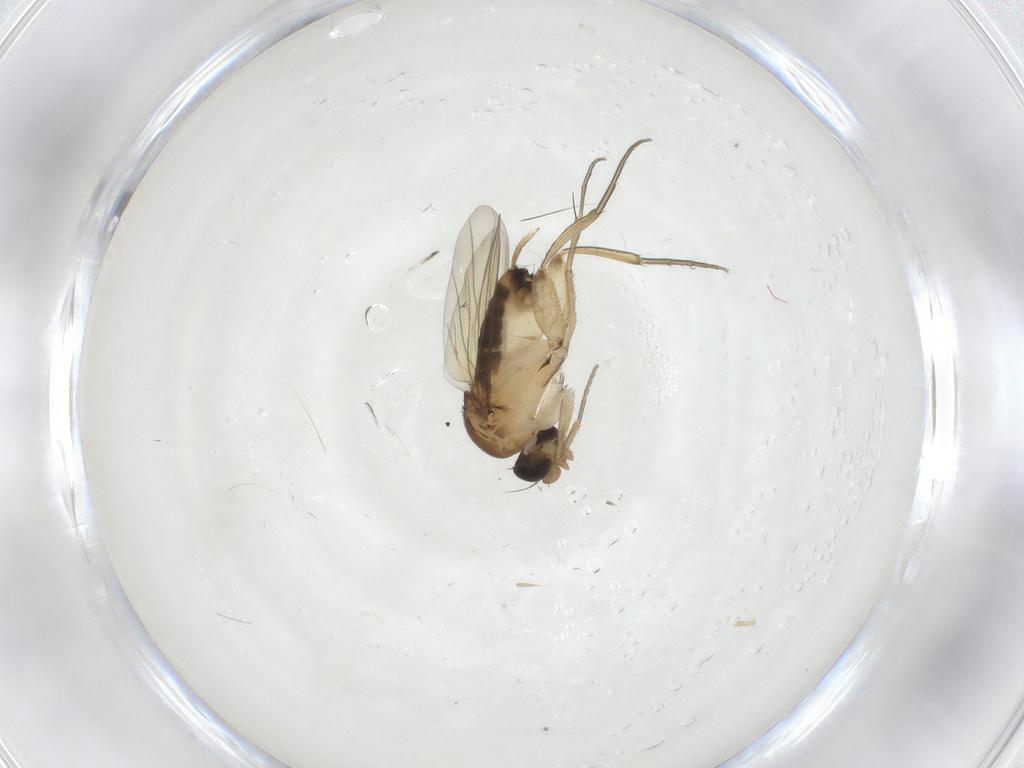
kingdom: Animalia
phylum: Arthropoda
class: Insecta
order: Diptera
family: Phoridae
